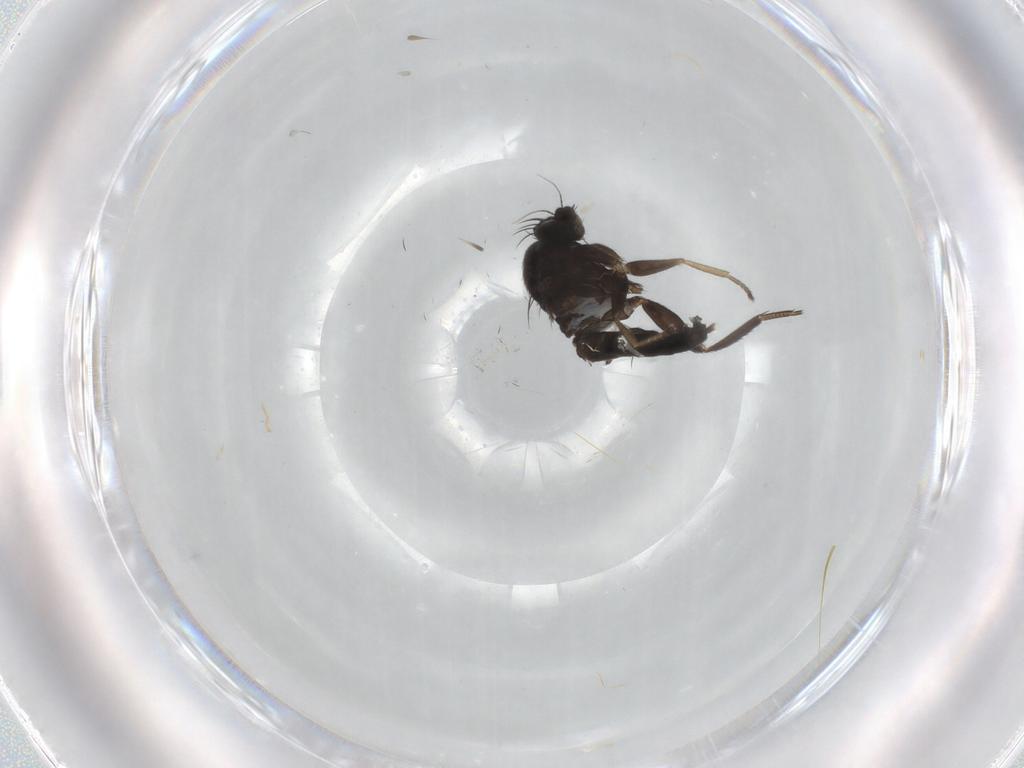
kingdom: Animalia
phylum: Arthropoda
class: Insecta
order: Diptera
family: Phoridae
